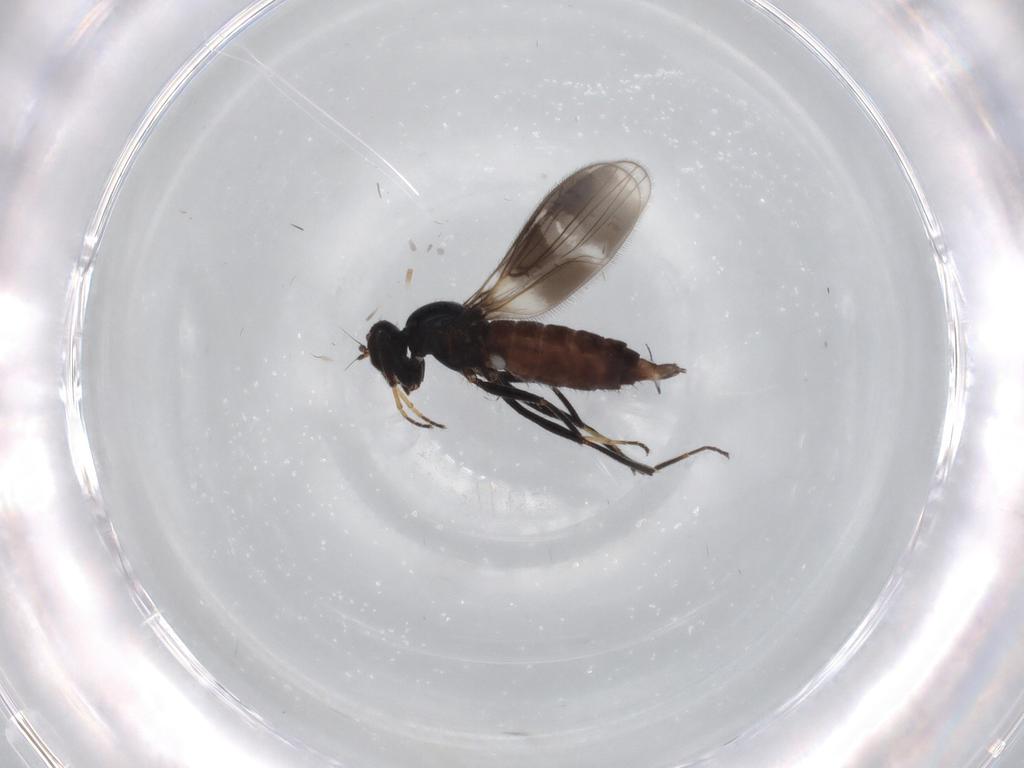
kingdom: Animalia
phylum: Arthropoda
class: Insecta
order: Diptera
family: Hybotidae
